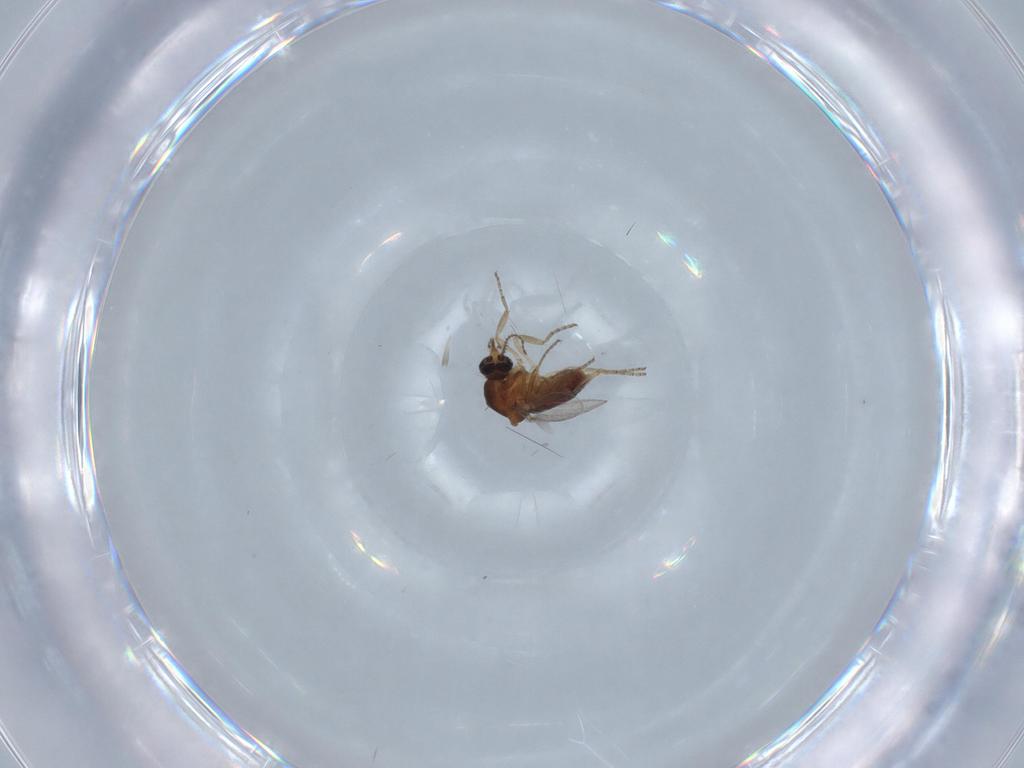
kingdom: Animalia
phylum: Arthropoda
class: Insecta
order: Diptera
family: Ceratopogonidae
